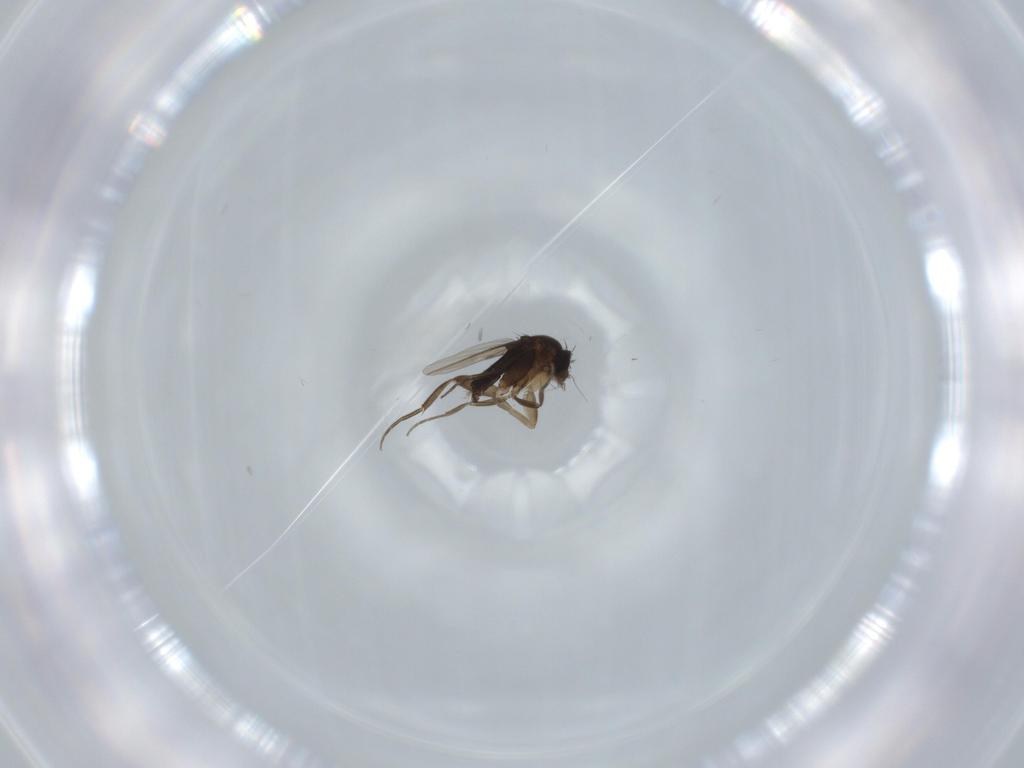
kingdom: Animalia
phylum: Arthropoda
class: Insecta
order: Diptera
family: Phoridae
